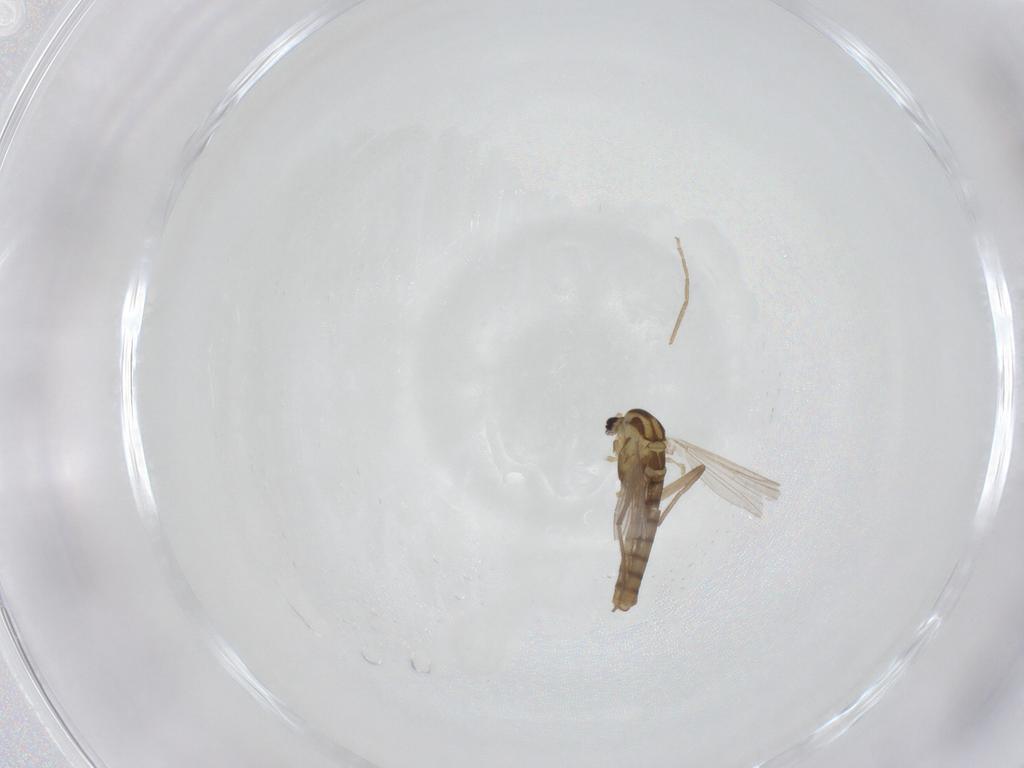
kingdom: Animalia
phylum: Arthropoda
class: Insecta
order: Diptera
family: Chironomidae
